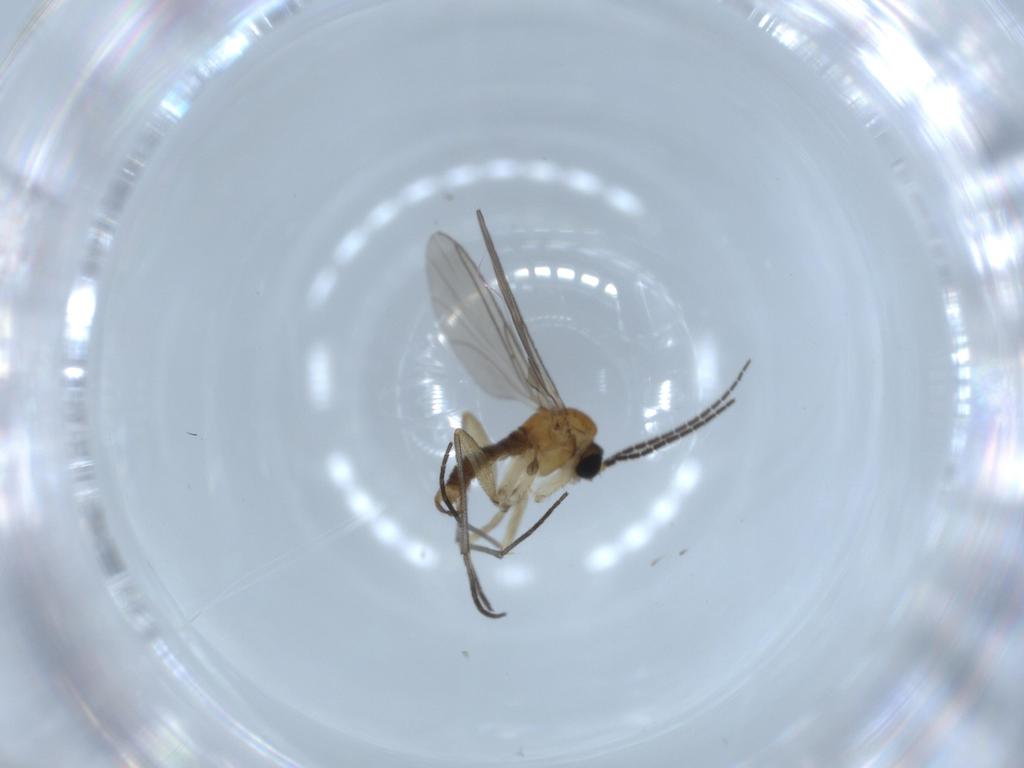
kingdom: Animalia
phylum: Arthropoda
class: Insecta
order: Diptera
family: Sciaridae
